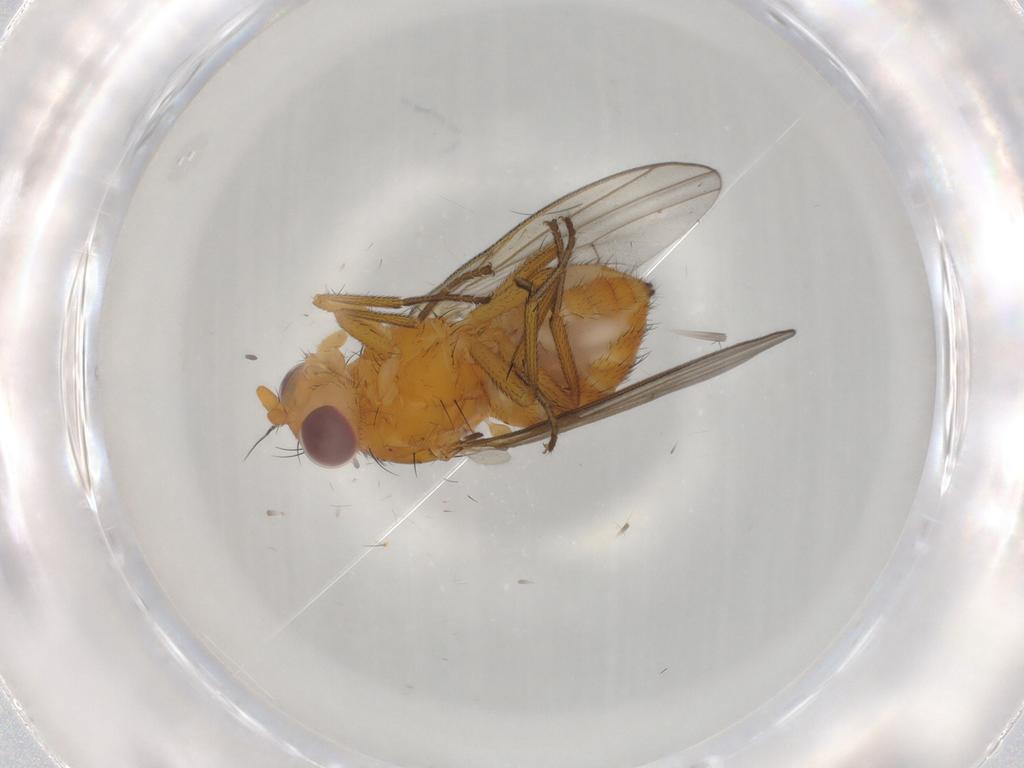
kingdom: Animalia
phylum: Arthropoda
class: Insecta
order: Diptera
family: Lauxaniidae
